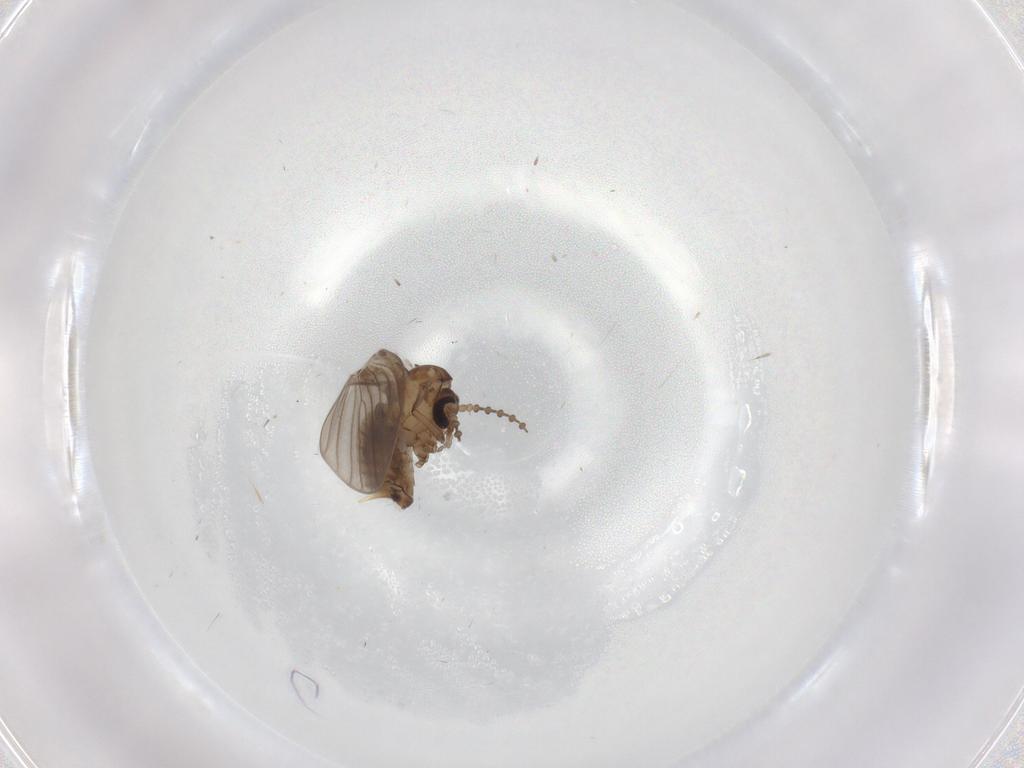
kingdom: Animalia
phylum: Arthropoda
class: Insecta
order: Diptera
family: Psychodidae
